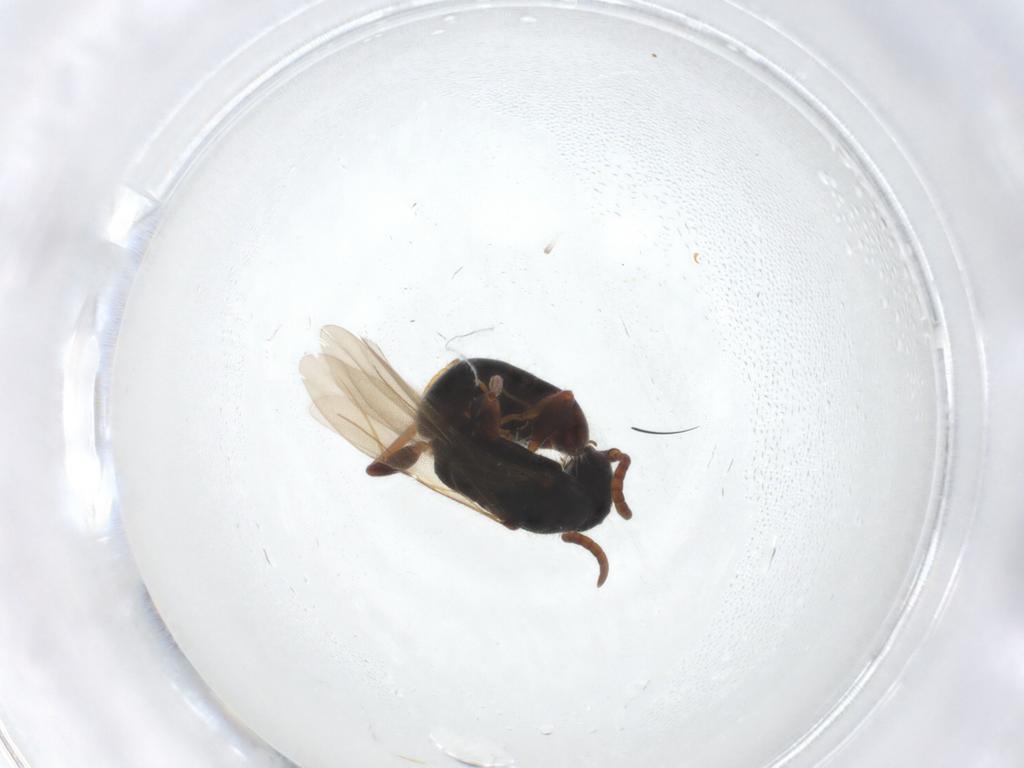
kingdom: Animalia
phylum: Arthropoda
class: Insecta
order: Hymenoptera
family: Bethylidae
